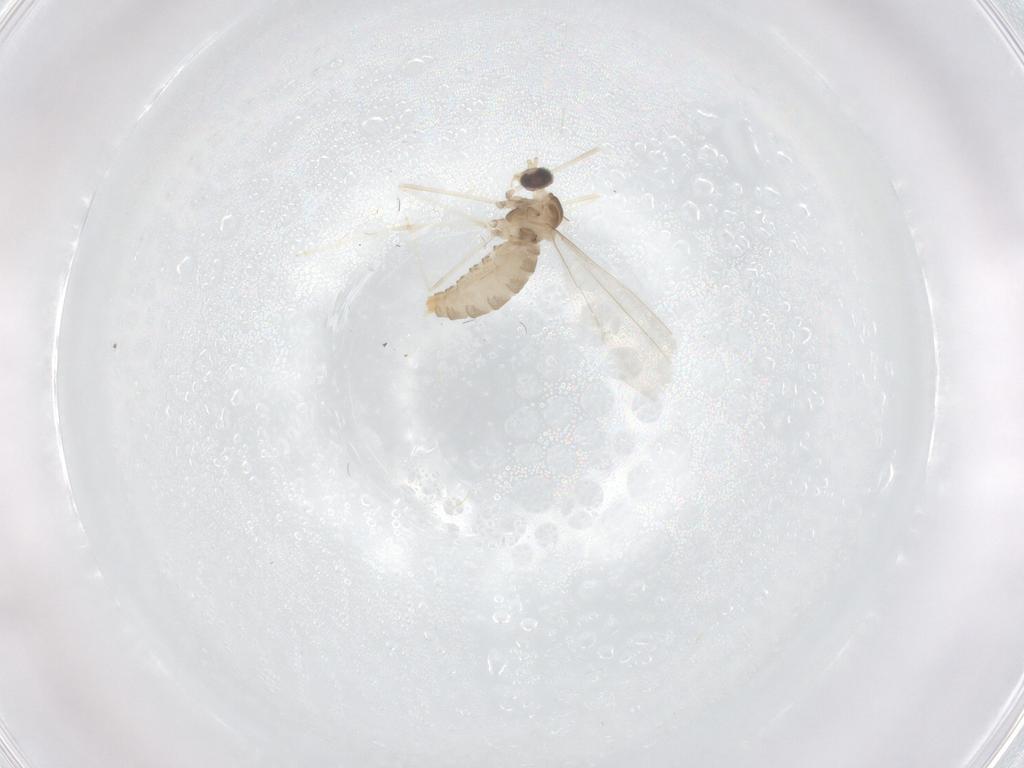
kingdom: Animalia
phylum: Arthropoda
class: Insecta
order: Diptera
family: Cecidomyiidae
